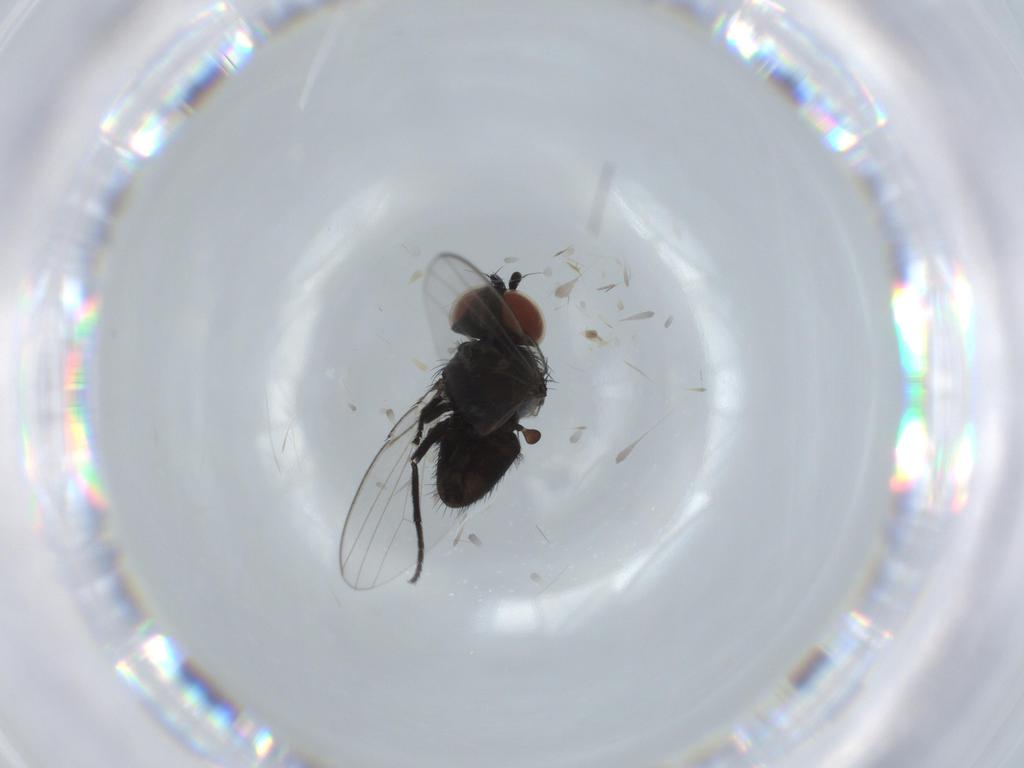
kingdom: Animalia
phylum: Arthropoda
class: Insecta
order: Diptera
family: Milichiidae
